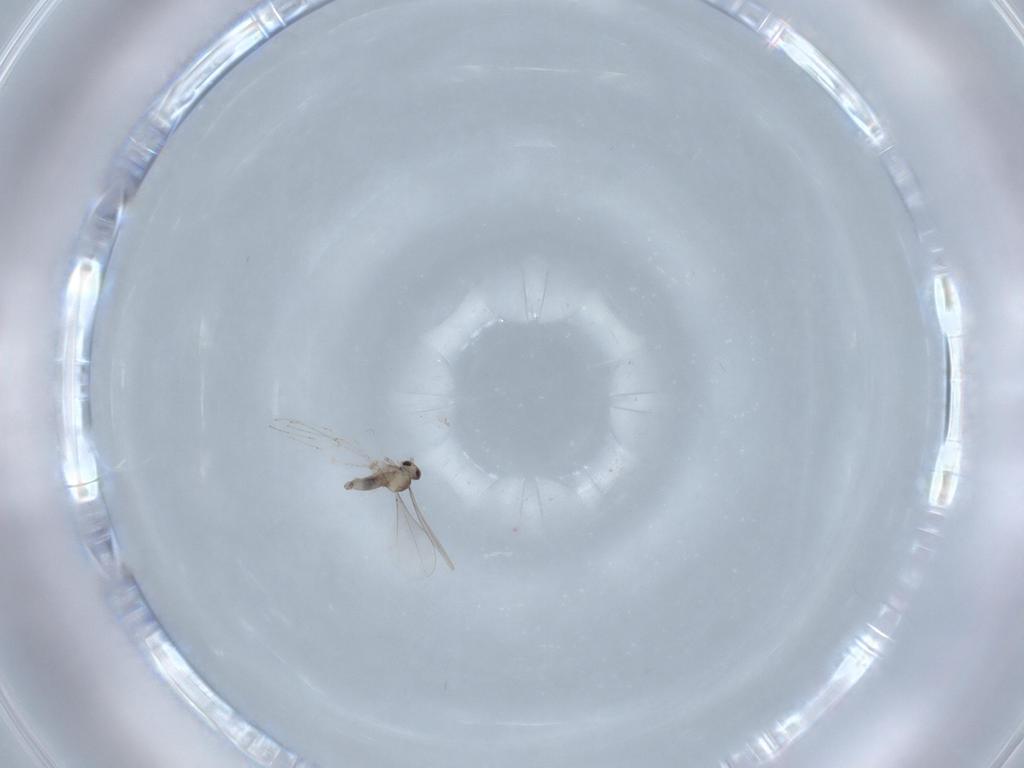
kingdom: Animalia
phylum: Arthropoda
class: Insecta
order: Diptera
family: Cecidomyiidae
